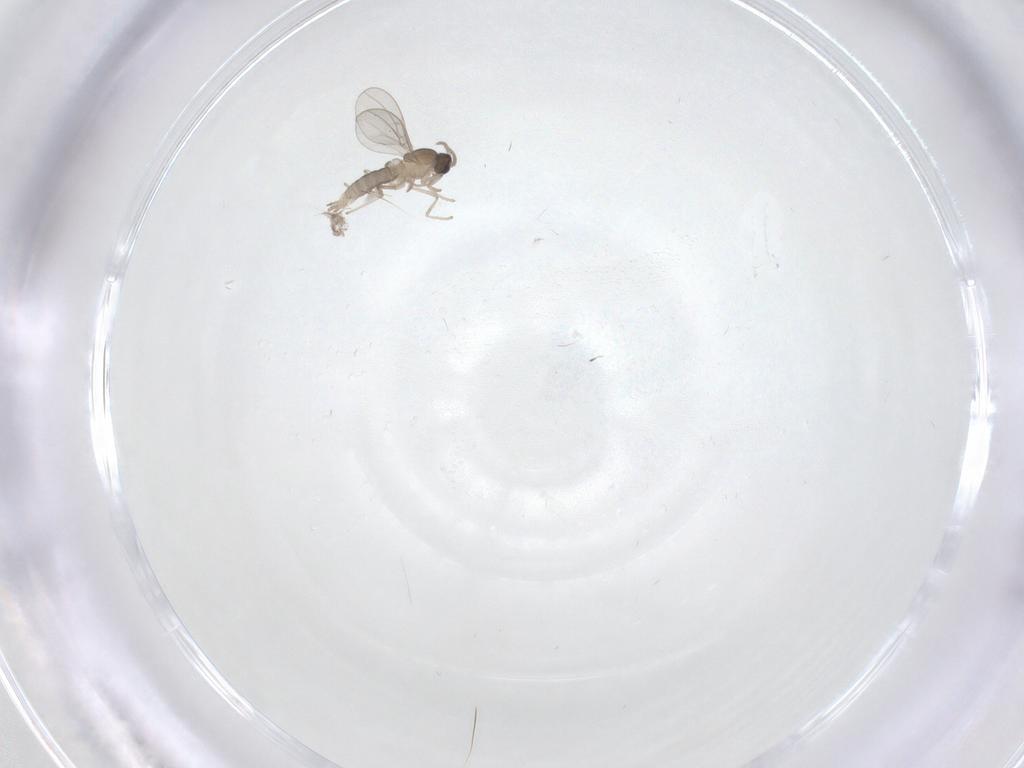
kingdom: Animalia
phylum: Arthropoda
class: Insecta
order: Diptera
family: Cecidomyiidae
